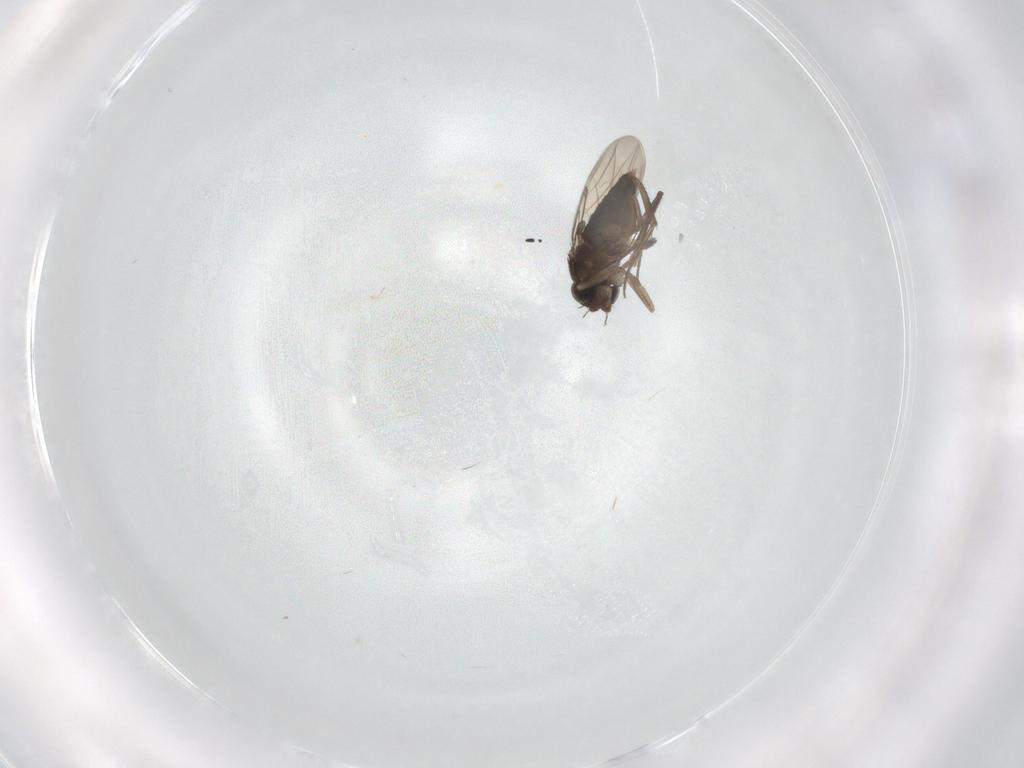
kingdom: Animalia
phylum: Arthropoda
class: Insecta
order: Diptera
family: Phoridae
